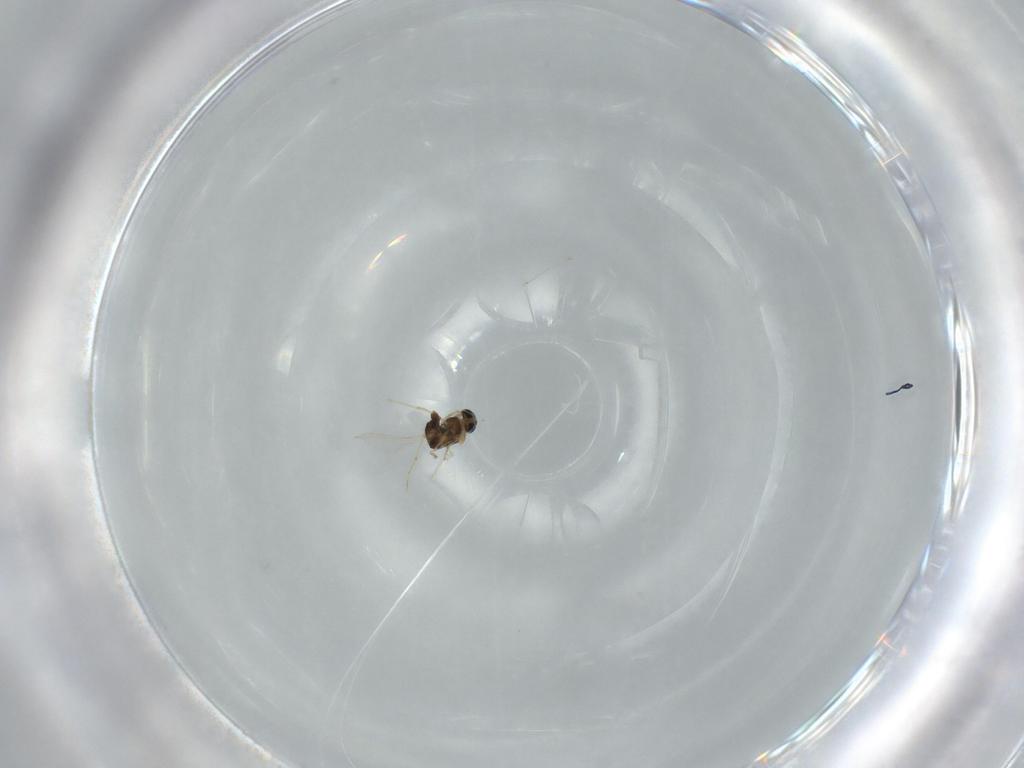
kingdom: Animalia
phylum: Arthropoda
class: Insecta
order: Diptera
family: Chironomidae
